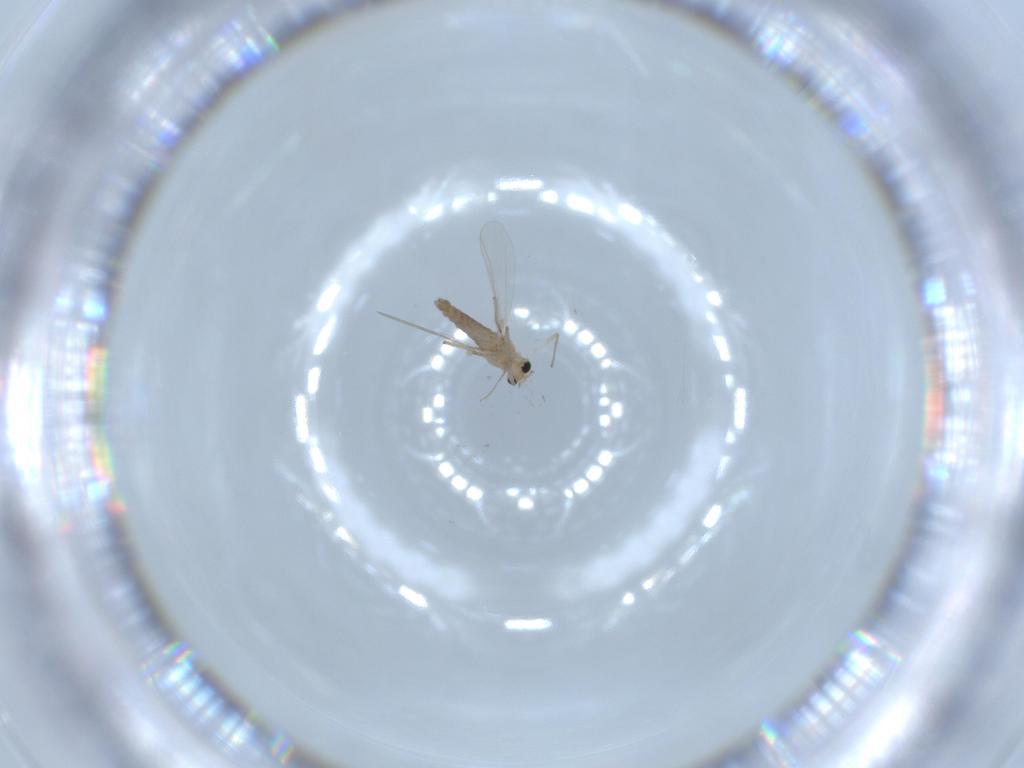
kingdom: Animalia
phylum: Arthropoda
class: Insecta
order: Diptera
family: Chironomidae
